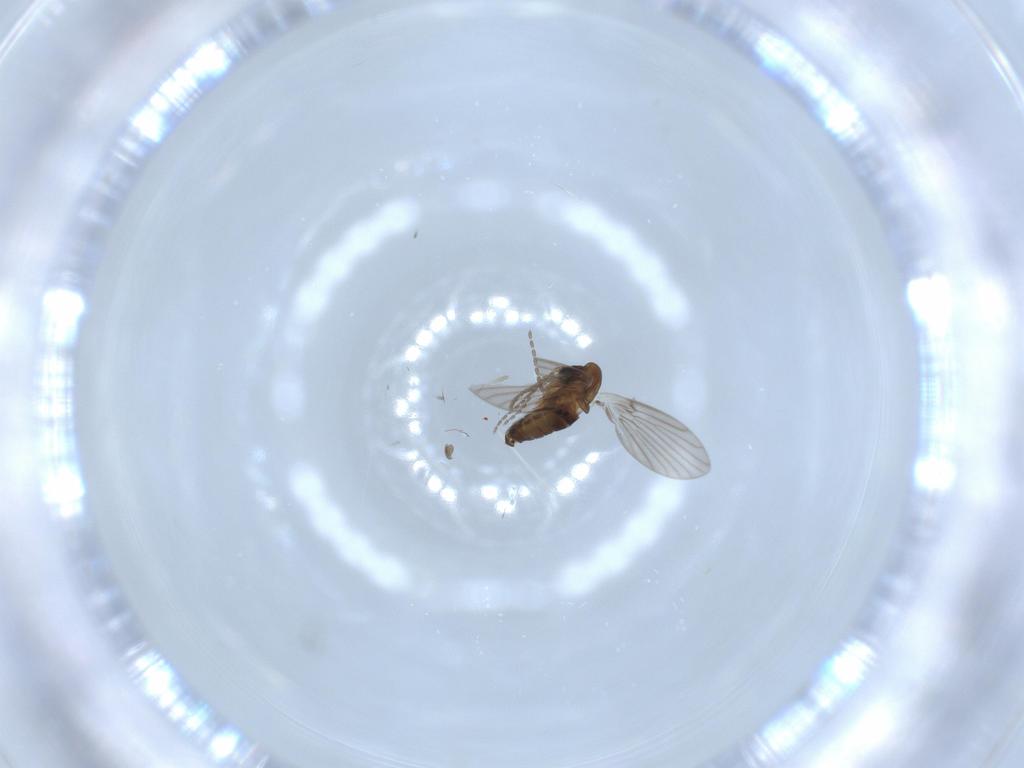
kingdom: Animalia
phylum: Arthropoda
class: Insecta
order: Diptera
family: Cecidomyiidae
